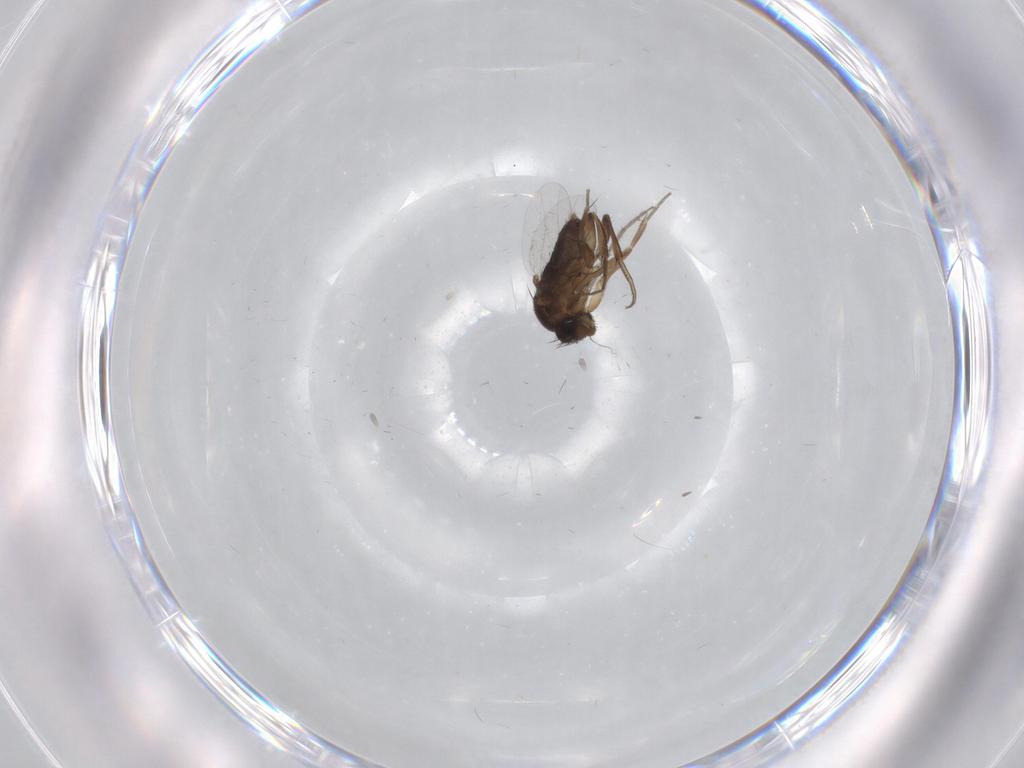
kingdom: Animalia
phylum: Arthropoda
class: Insecta
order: Diptera
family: Phoridae
